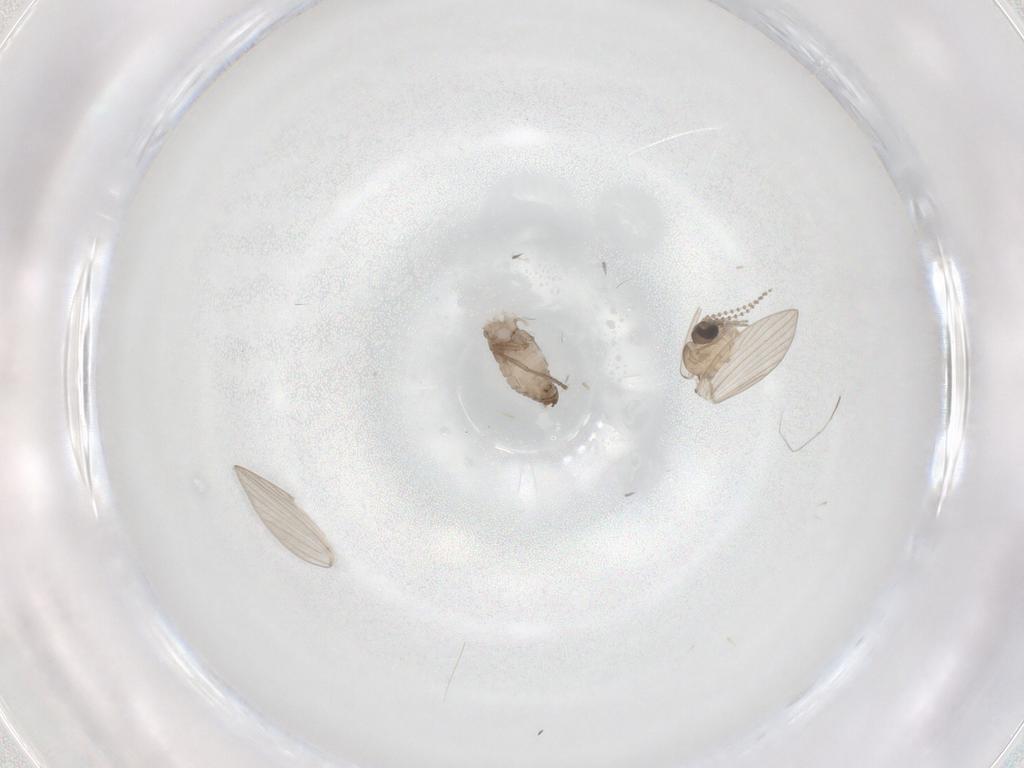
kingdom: Animalia
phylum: Arthropoda
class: Insecta
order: Diptera
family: Psychodidae
